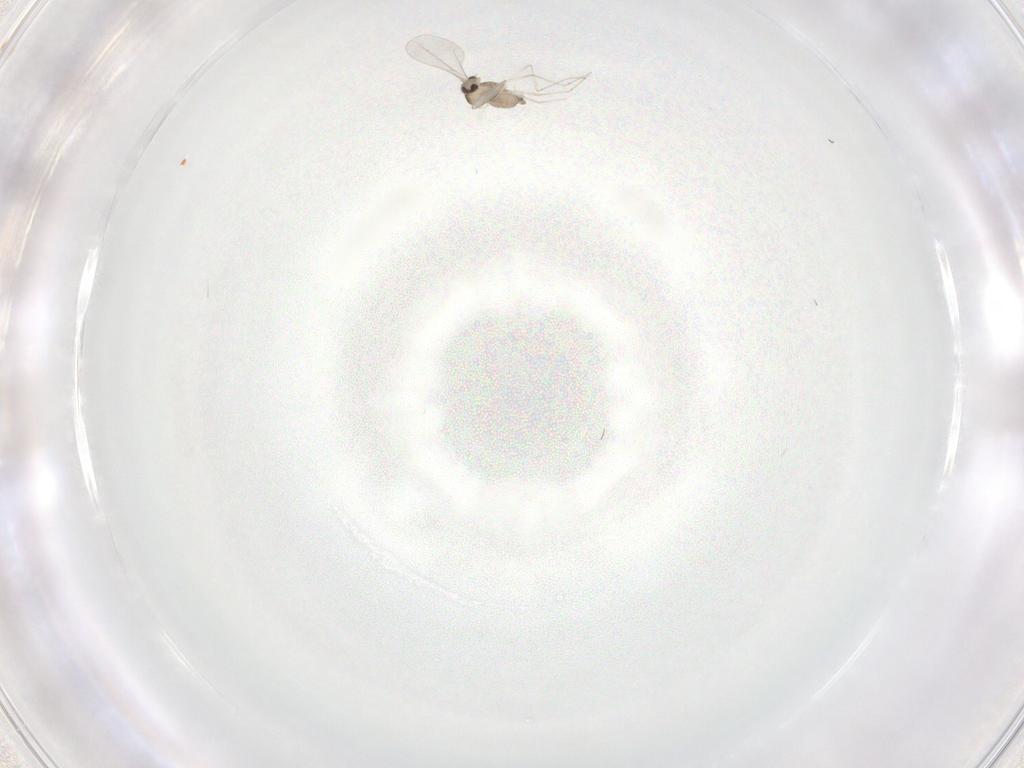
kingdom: Animalia
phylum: Arthropoda
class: Insecta
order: Diptera
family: Cecidomyiidae
